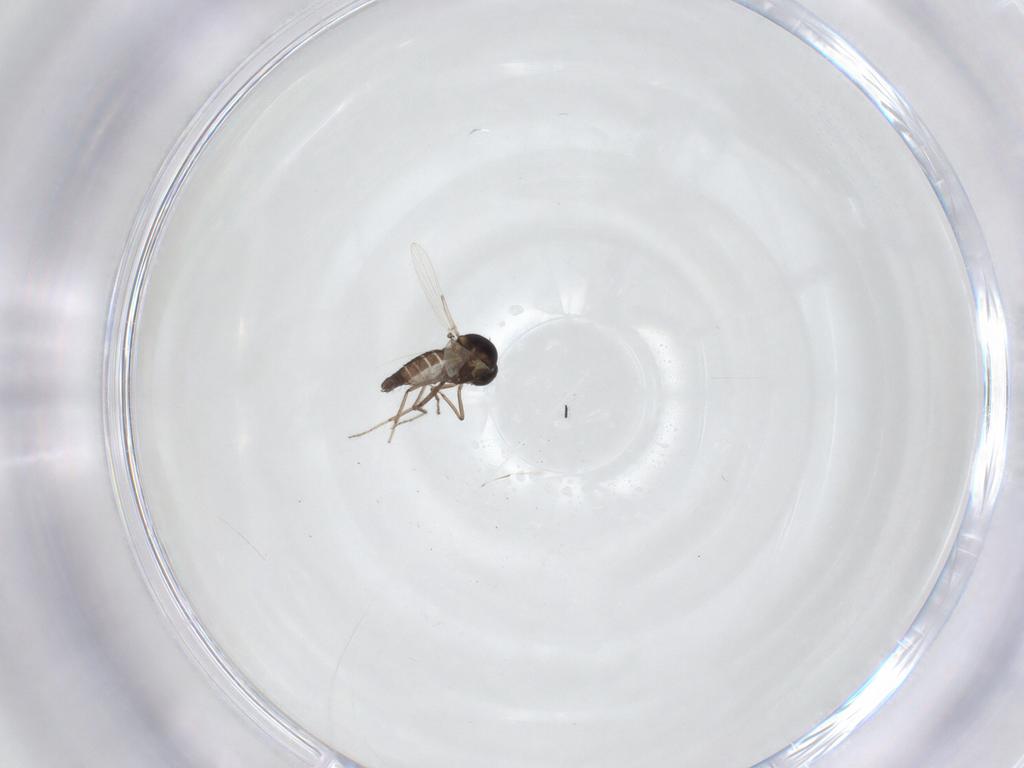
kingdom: Animalia
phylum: Arthropoda
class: Insecta
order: Diptera
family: Ceratopogonidae
